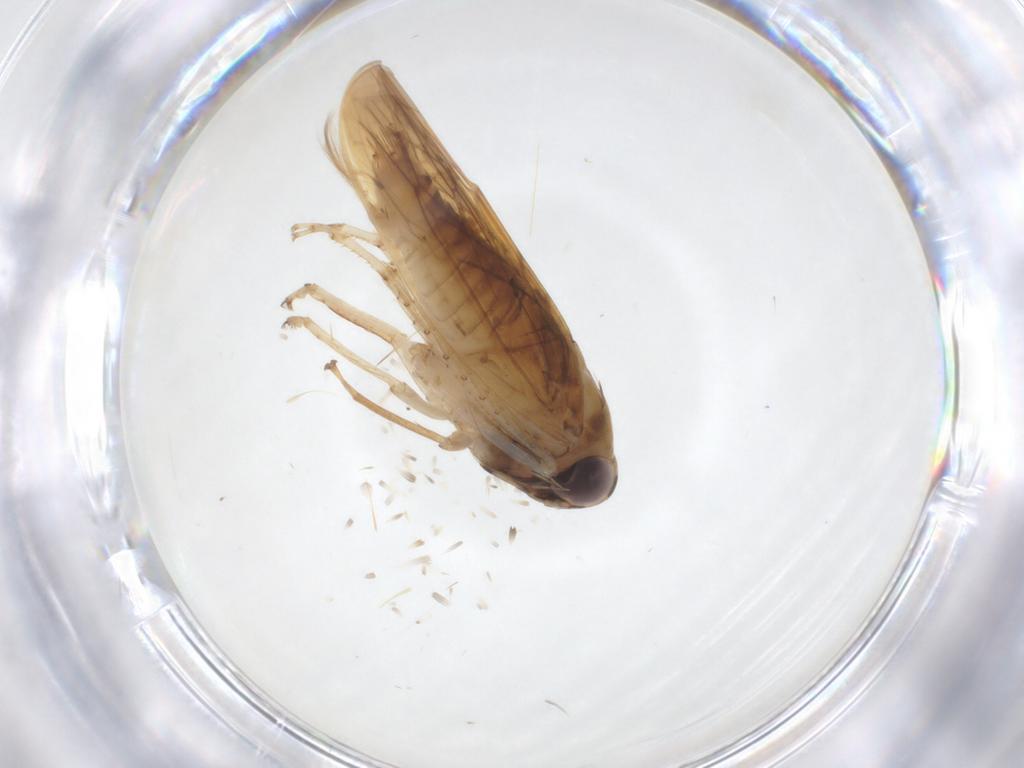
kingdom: Animalia
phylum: Arthropoda
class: Insecta
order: Hemiptera
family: Cicadellidae
